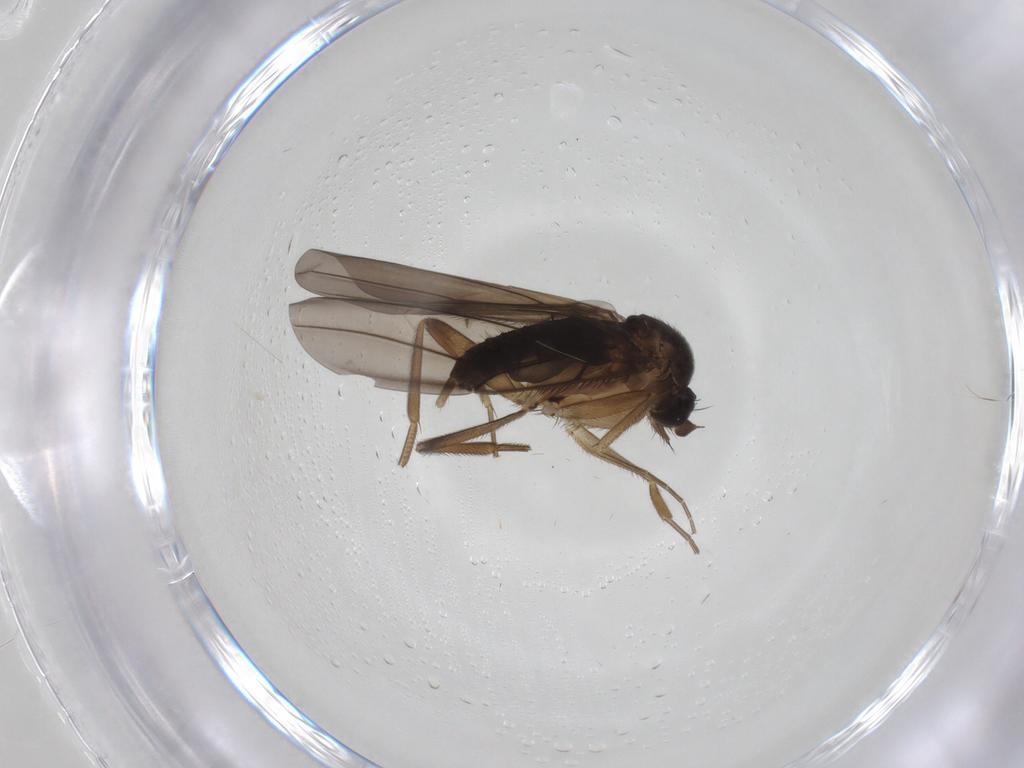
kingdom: Animalia
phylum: Arthropoda
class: Insecta
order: Diptera
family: Phoridae
